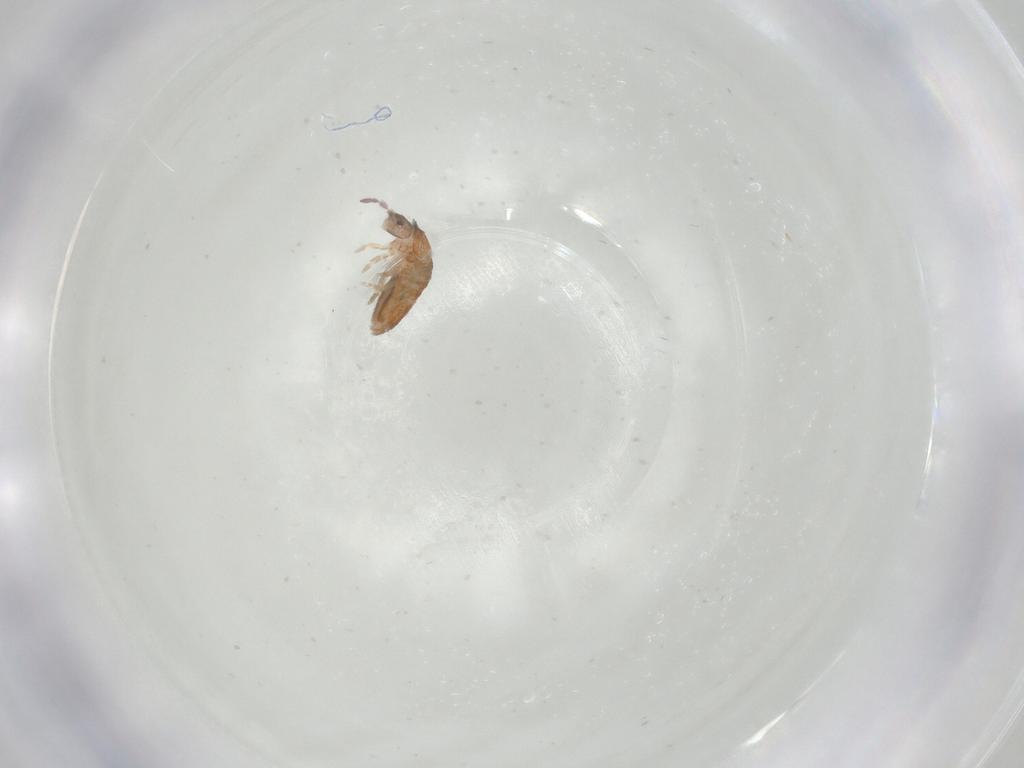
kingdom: Animalia
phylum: Arthropoda
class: Collembola
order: Entomobryomorpha
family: Entomobryidae
